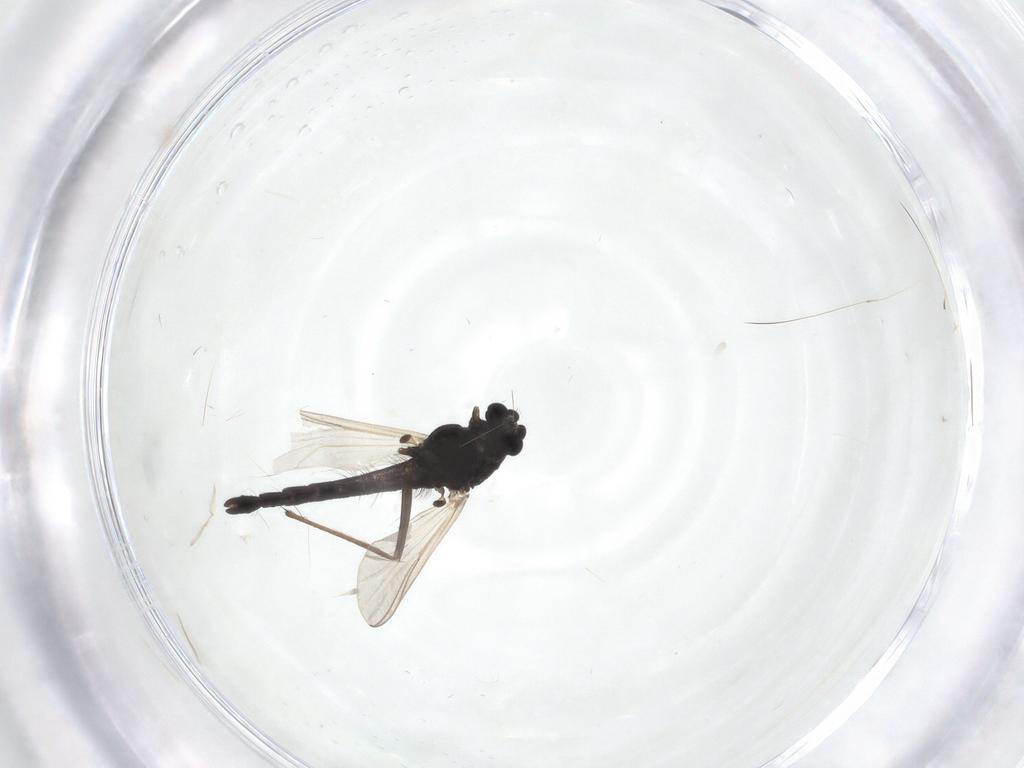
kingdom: Animalia
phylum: Arthropoda
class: Insecta
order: Diptera
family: Chironomidae
